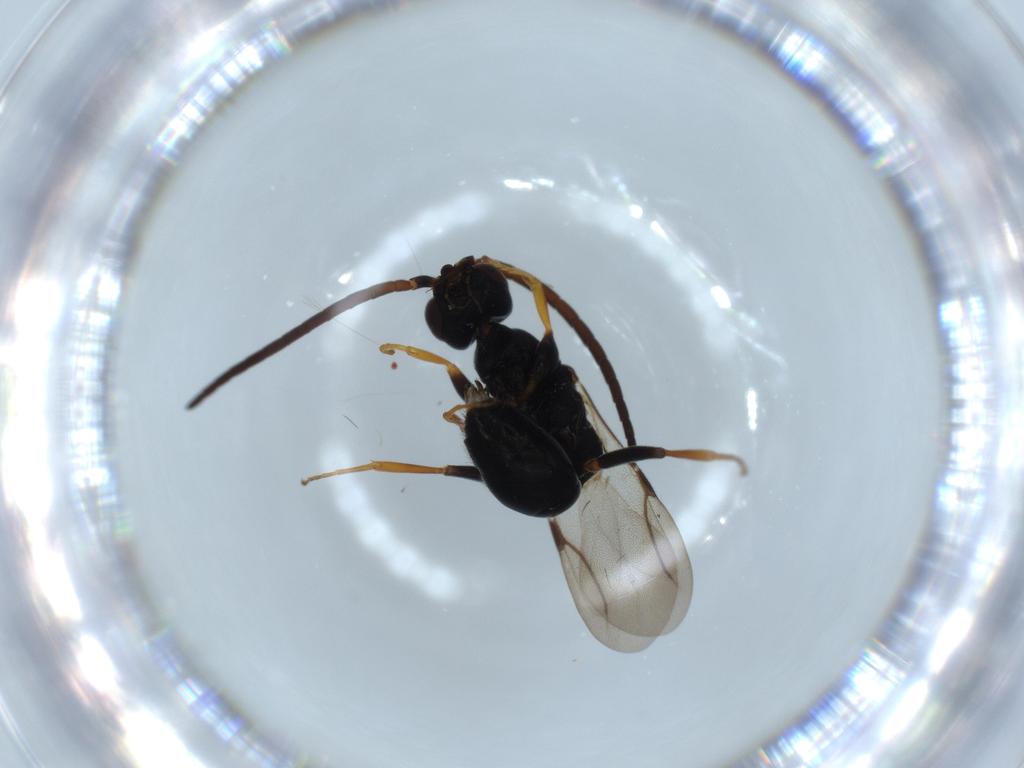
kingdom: Animalia
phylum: Arthropoda
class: Insecta
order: Hymenoptera
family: Bethylidae
